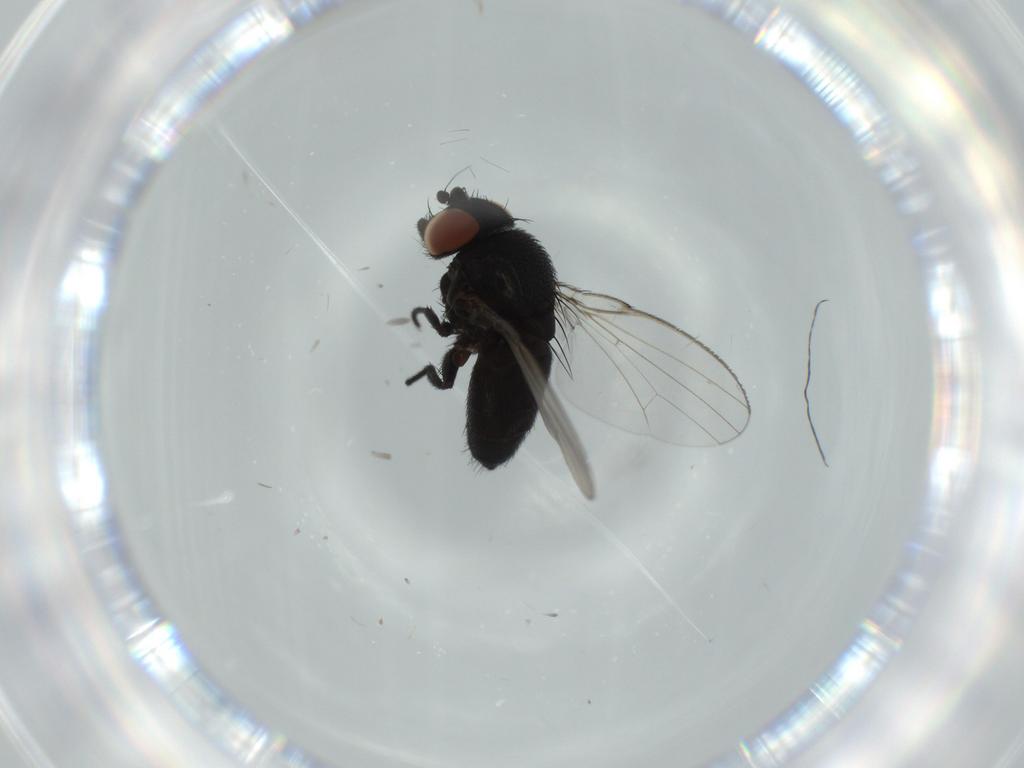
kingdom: Animalia
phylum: Arthropoda
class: Insecta
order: Diptera
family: Milichiidae
